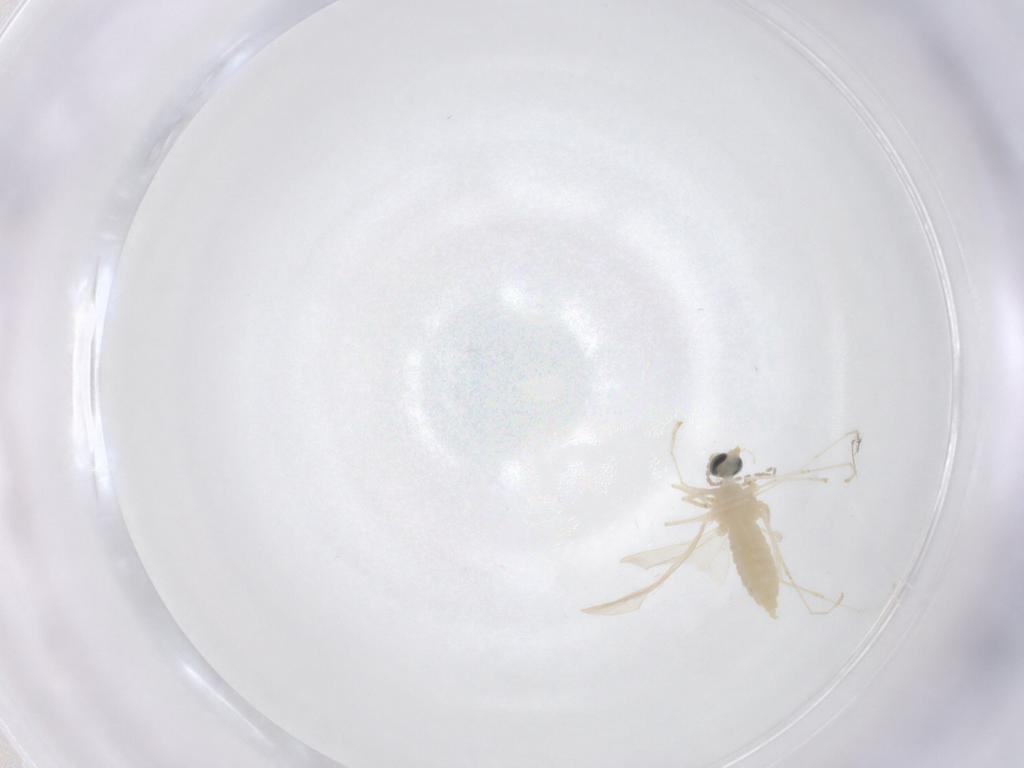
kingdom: Animalia
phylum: Arthropoda
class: Insecta
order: Diptera
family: Cecidomyiidae
